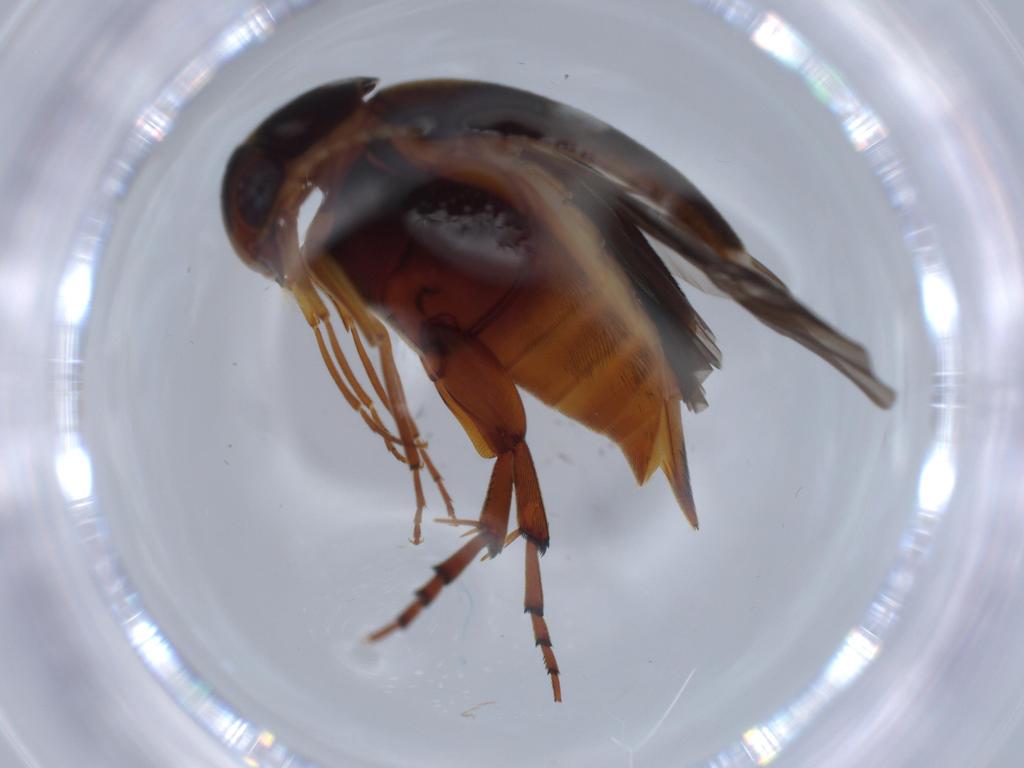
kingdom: Animalia
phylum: Arthropoda
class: Insecta
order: Coleoptera
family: Mordellidae
